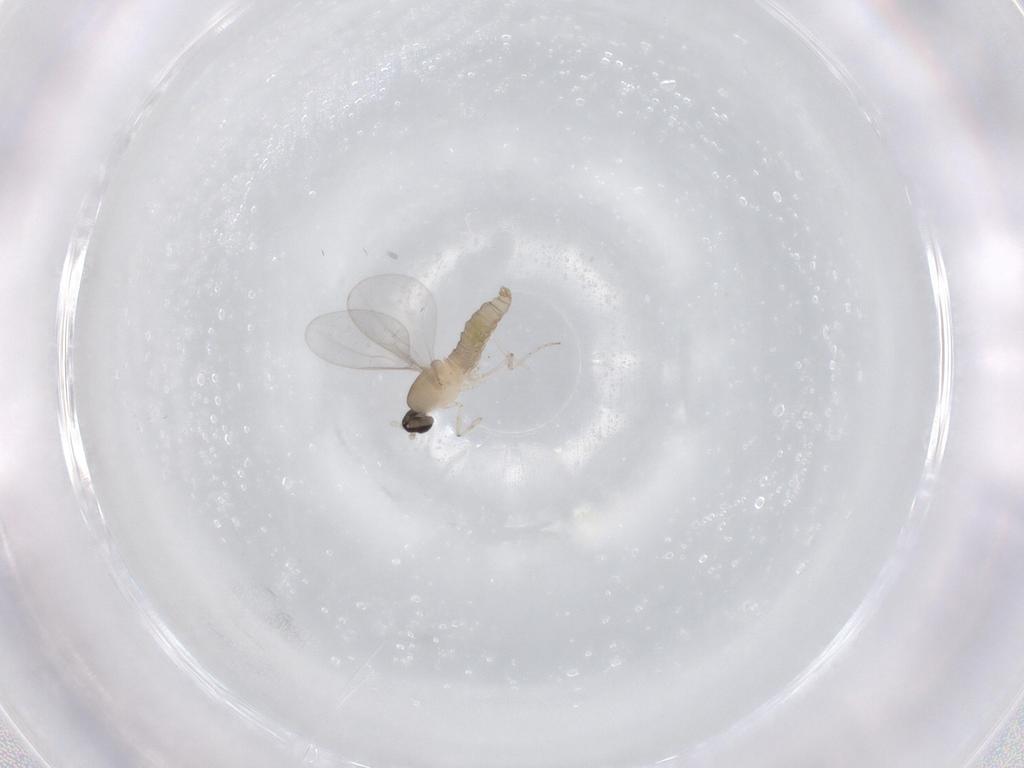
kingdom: Animalia
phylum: Arthropoda
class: Insecta
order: Diptera
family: Cecidomyiidae
